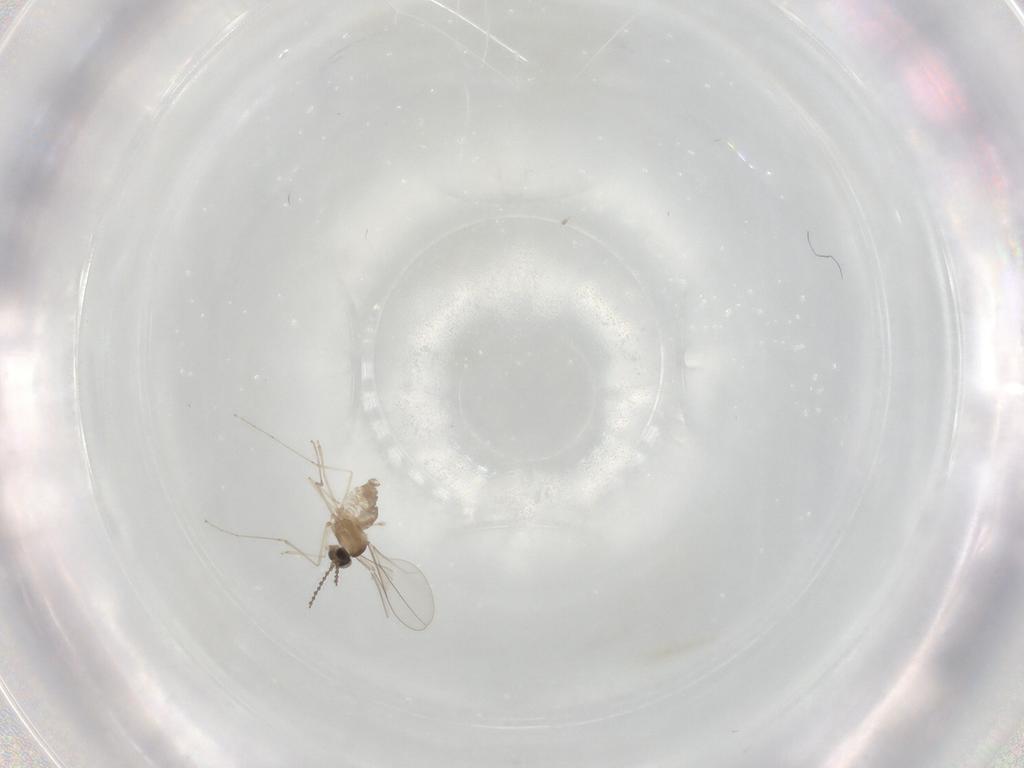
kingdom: Animalia
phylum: Arthropoda
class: Insecta
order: Diptera
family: Cecidomyiidae
